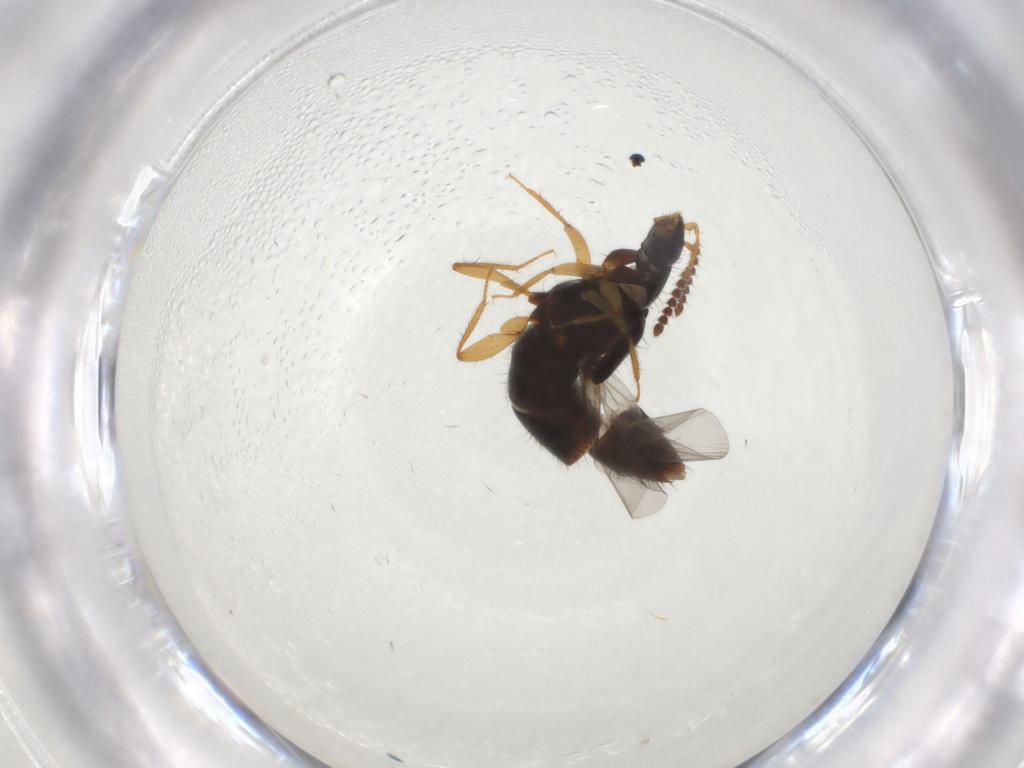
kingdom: Animalia
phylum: Arthropoda
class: Insecta
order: Coleoptera
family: Staphylinidae
